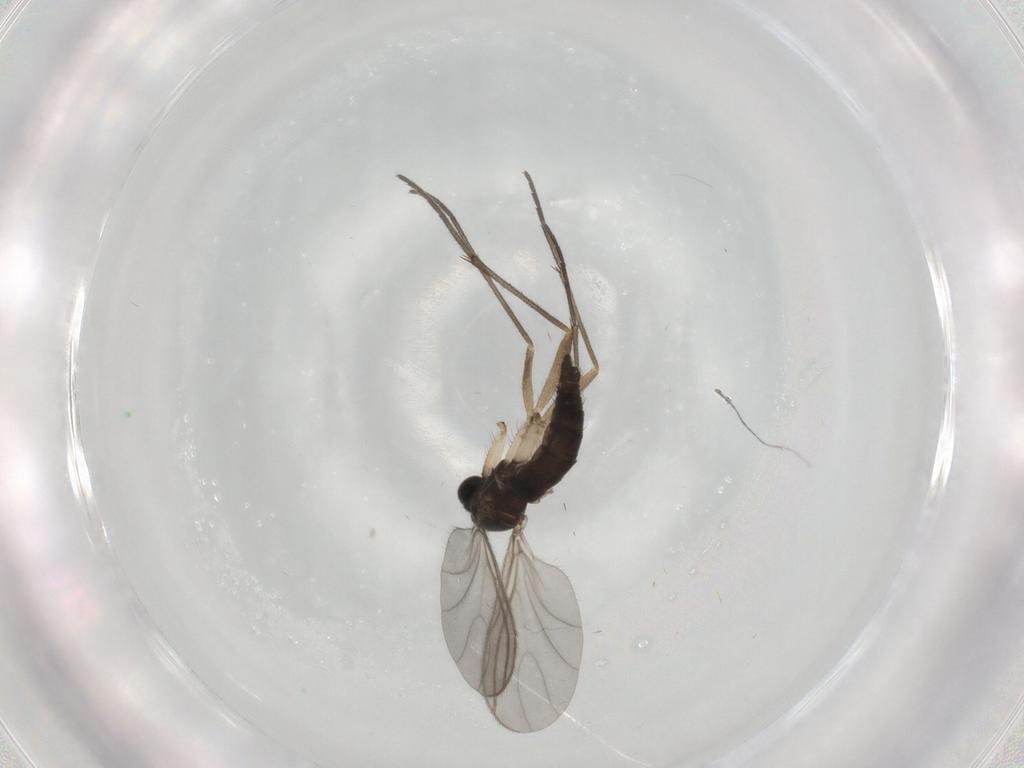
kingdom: Animalia
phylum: Arthropoda
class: Insecta
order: Diptera
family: Sciaridae
